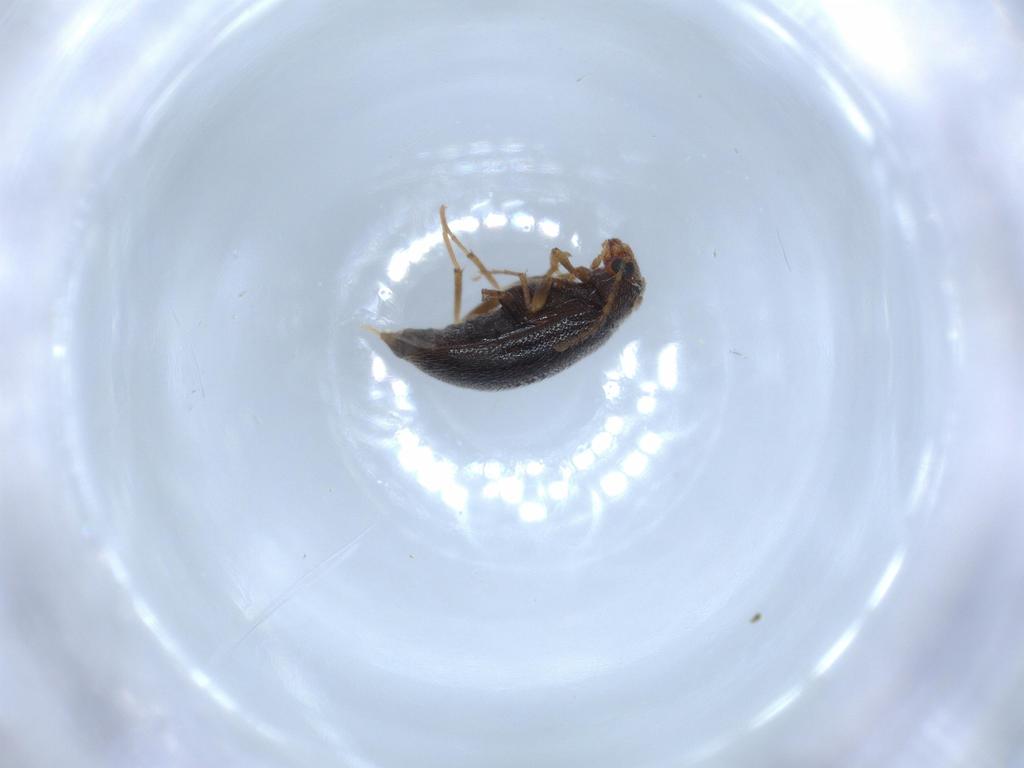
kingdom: Animalia
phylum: Arthropoda
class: Insecta
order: Coleoptera
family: Melandryidae
